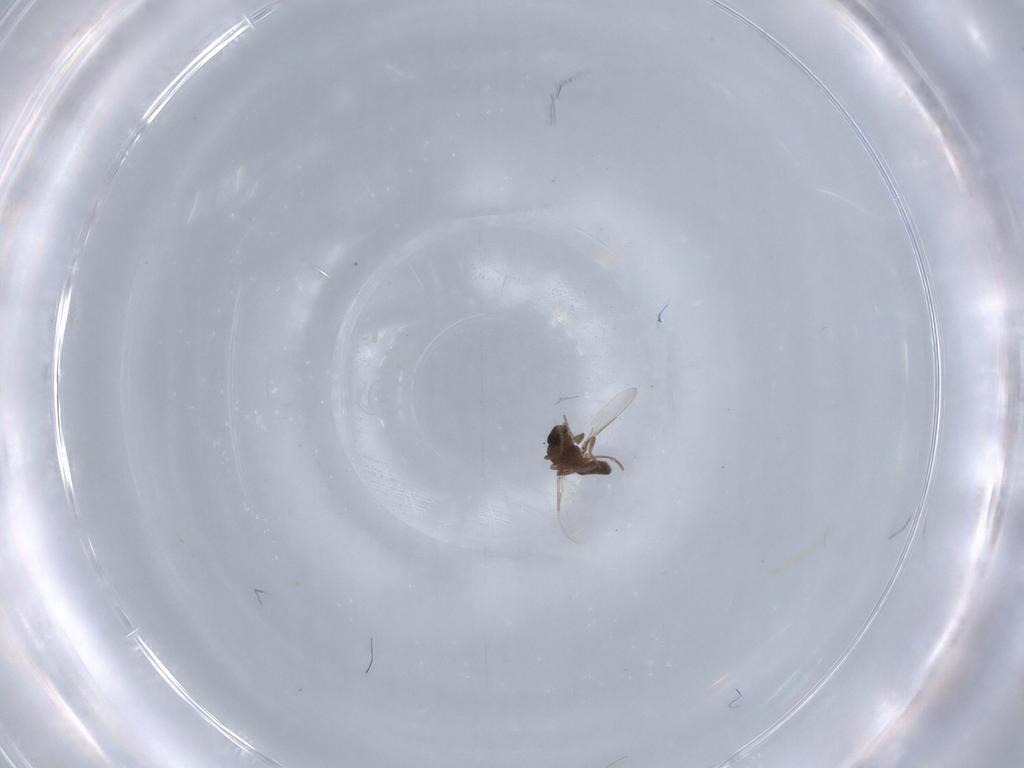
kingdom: Animalia
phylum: Arthropoda
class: Insecta
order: Diptera
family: Ceratopogonidae
